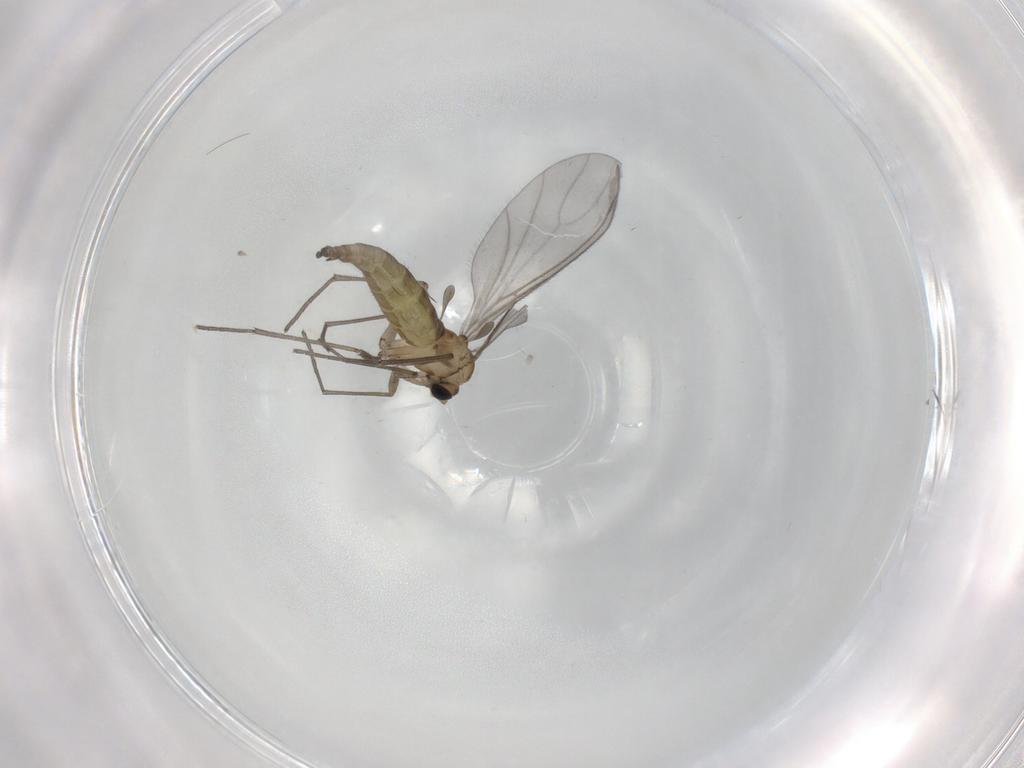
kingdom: Animalia
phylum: Arthropoda
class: Insecta
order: Diptera
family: Sciaridae
